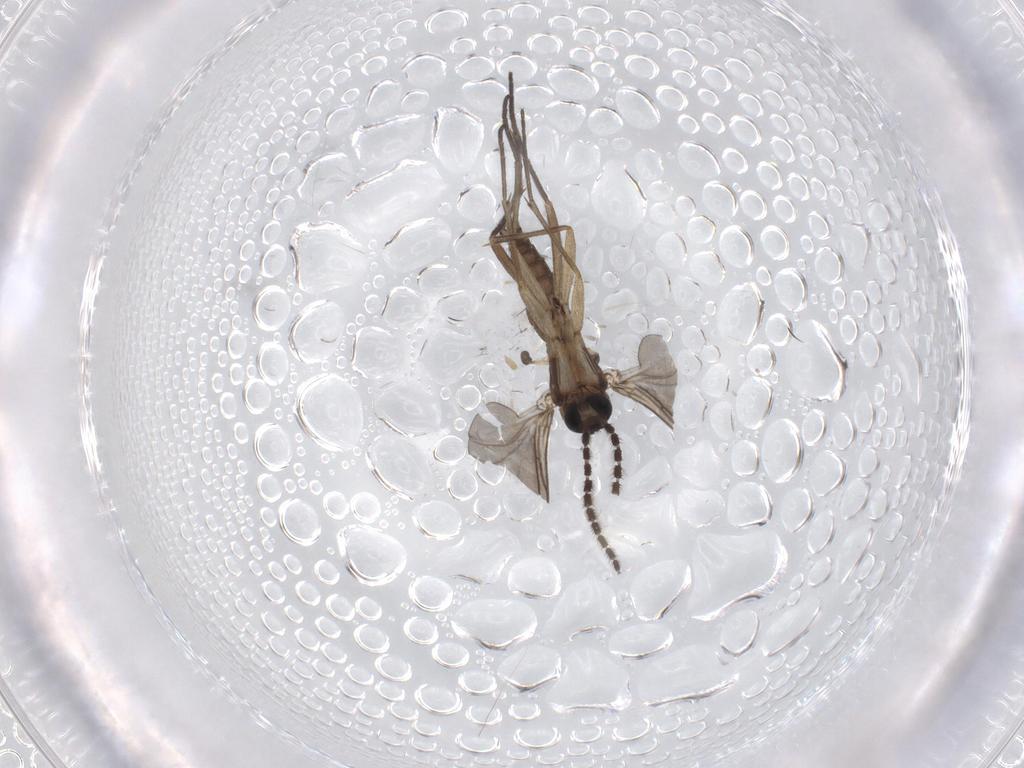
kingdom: Animalia
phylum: Arthropoda
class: Insecta
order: Diptera
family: Sciaridae
